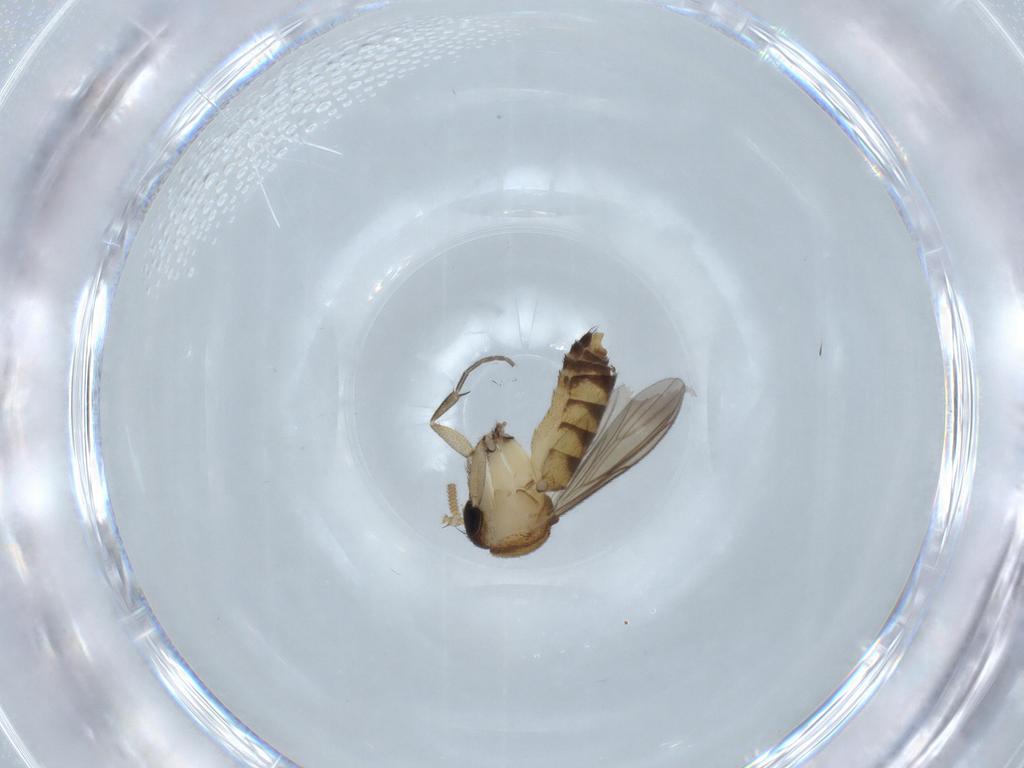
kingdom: Animalia
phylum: Arthropoda
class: Insecta
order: Diptera
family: Mycetophilidae
